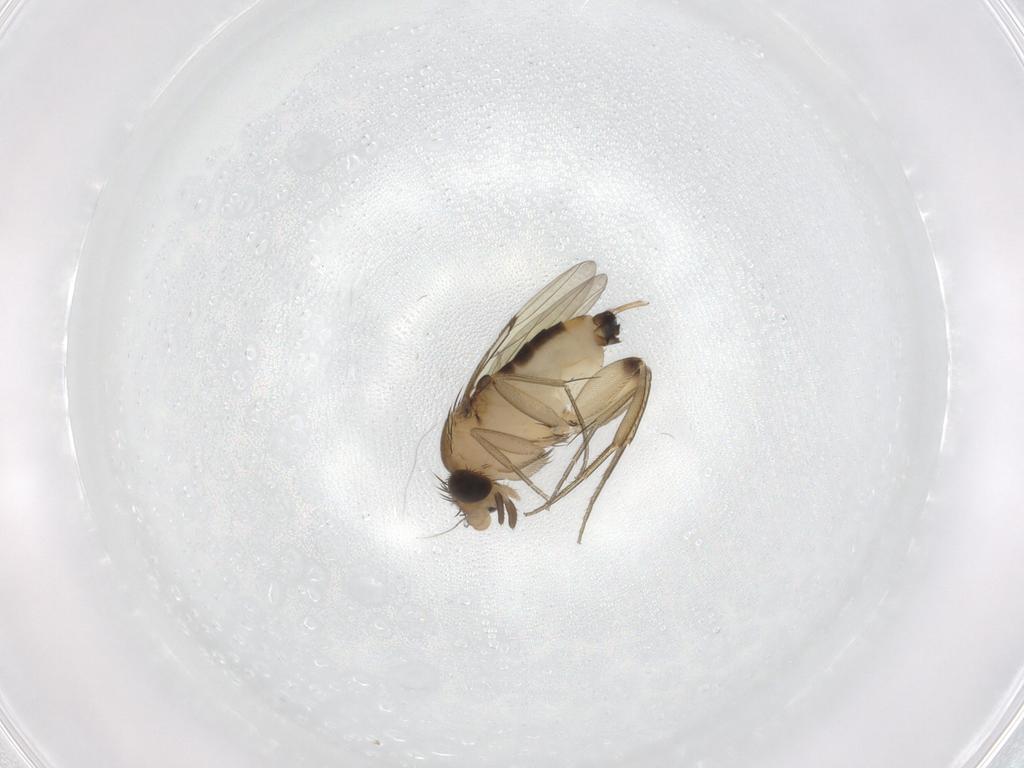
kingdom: Animalia
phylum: Arthropoda
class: Insecta
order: Diptera
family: Phoridae
